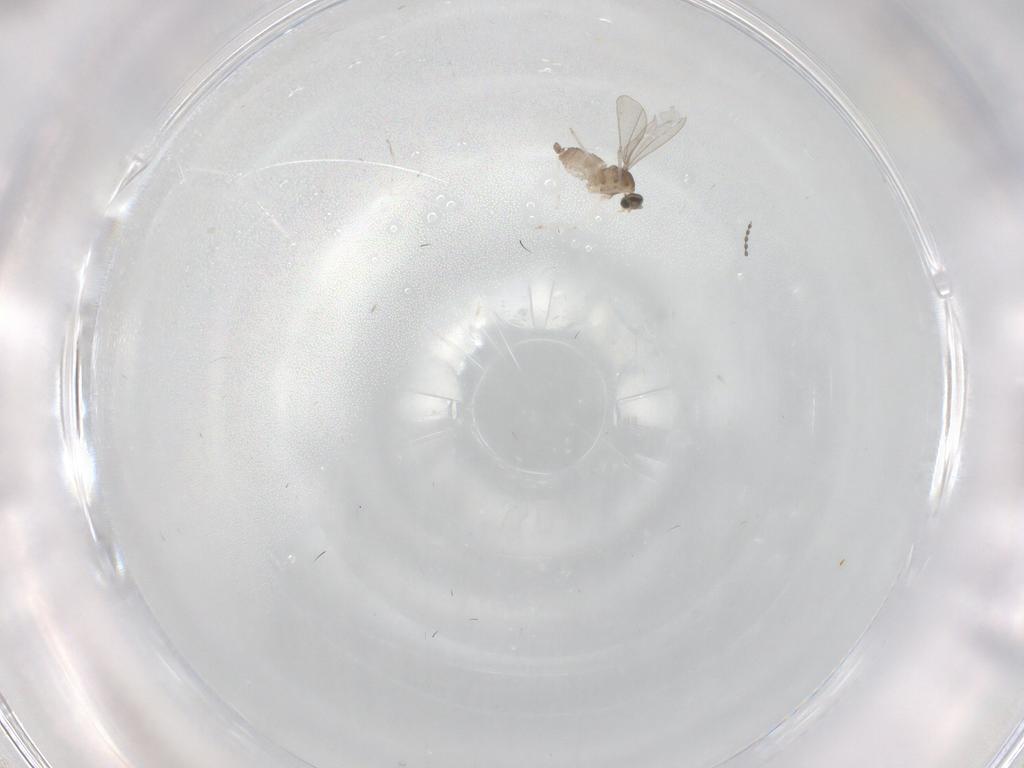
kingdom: Animalia
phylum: Arthropoda
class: Insecta
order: Diptera
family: Cecidomyiidae
